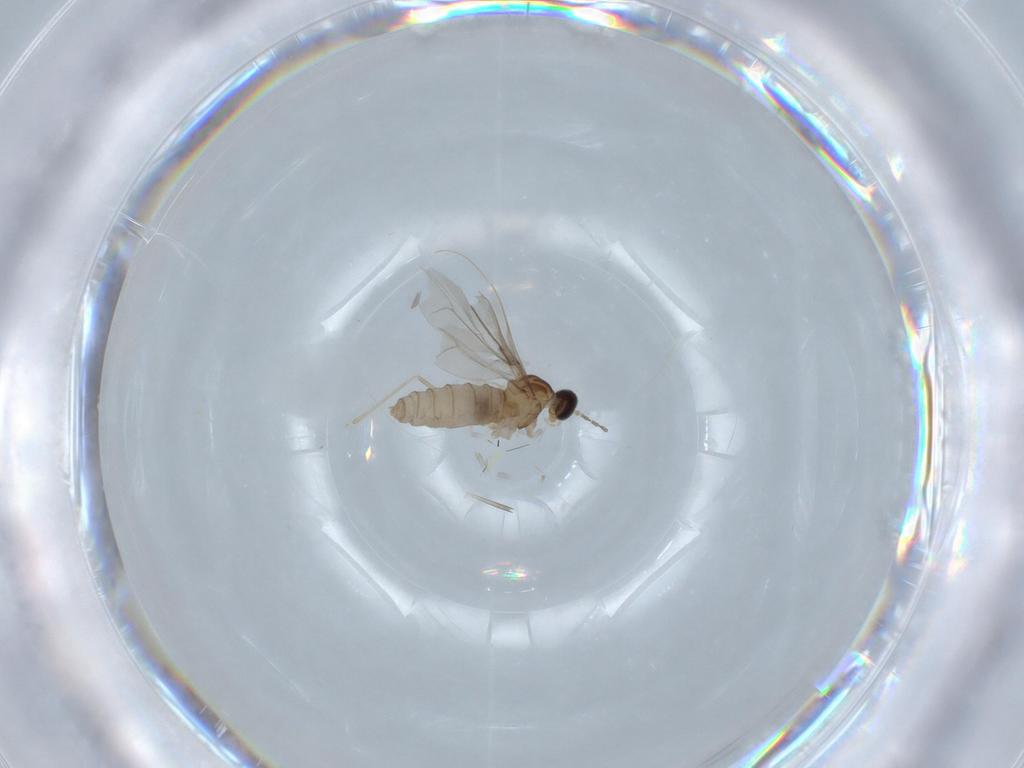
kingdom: Animalia
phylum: Arthropoda
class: Insecta
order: Diptera
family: Cecidomyiidae
